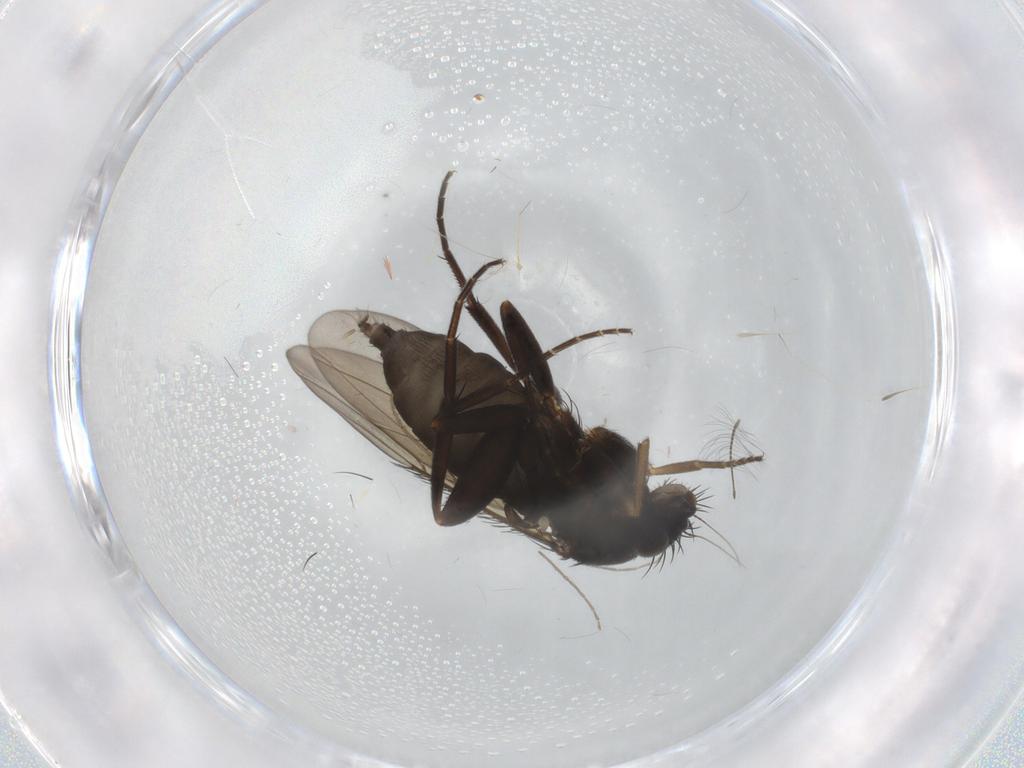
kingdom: Animalia
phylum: Arthropoda
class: Insecta
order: Diptera
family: Phoridae
